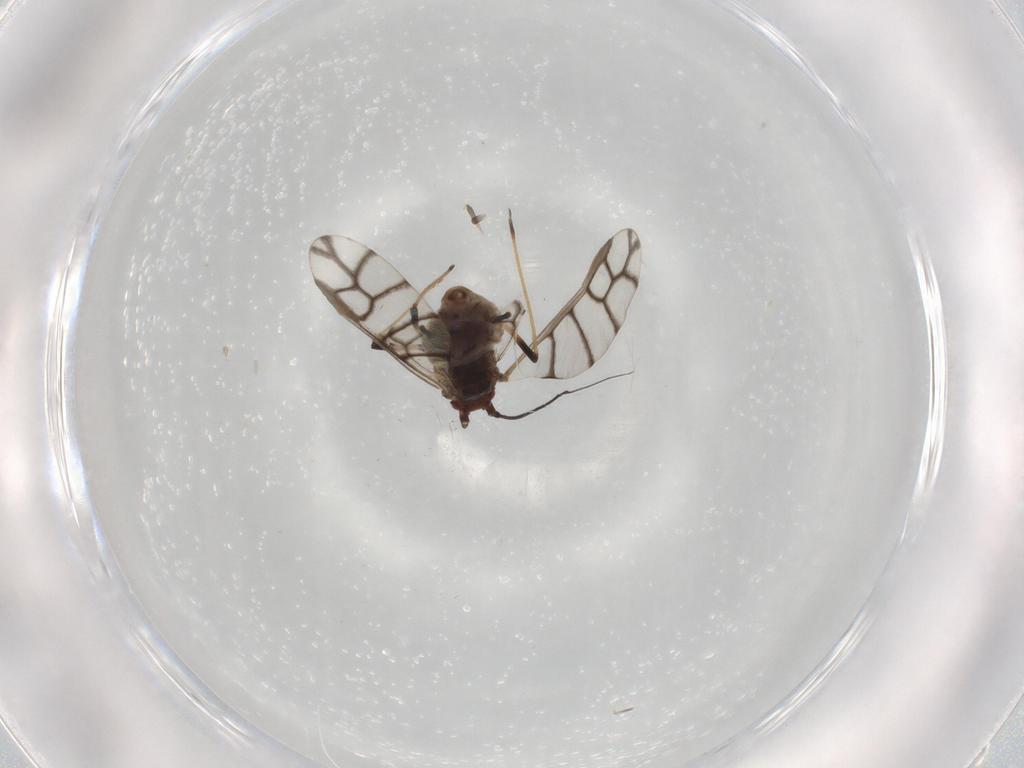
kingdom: Animalia
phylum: Arthropoda
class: Insecta
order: Hemiptera
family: Aphididae
